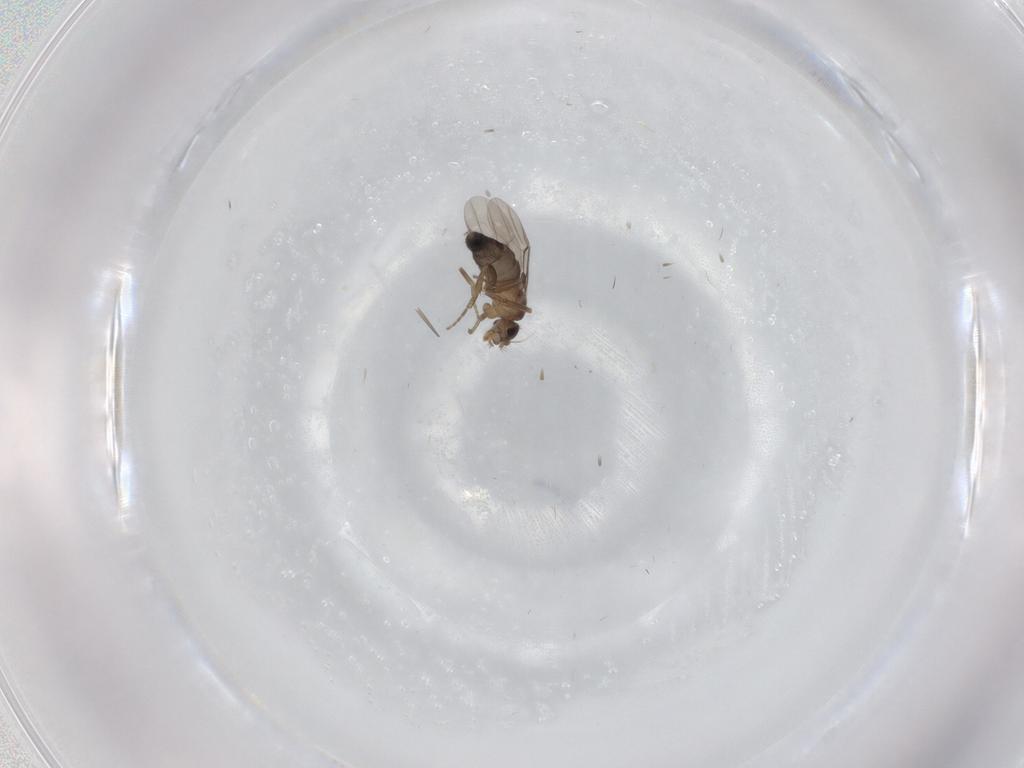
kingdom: Animalia
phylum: Arthropoda
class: Insecta
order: Diptera
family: Phoridae
